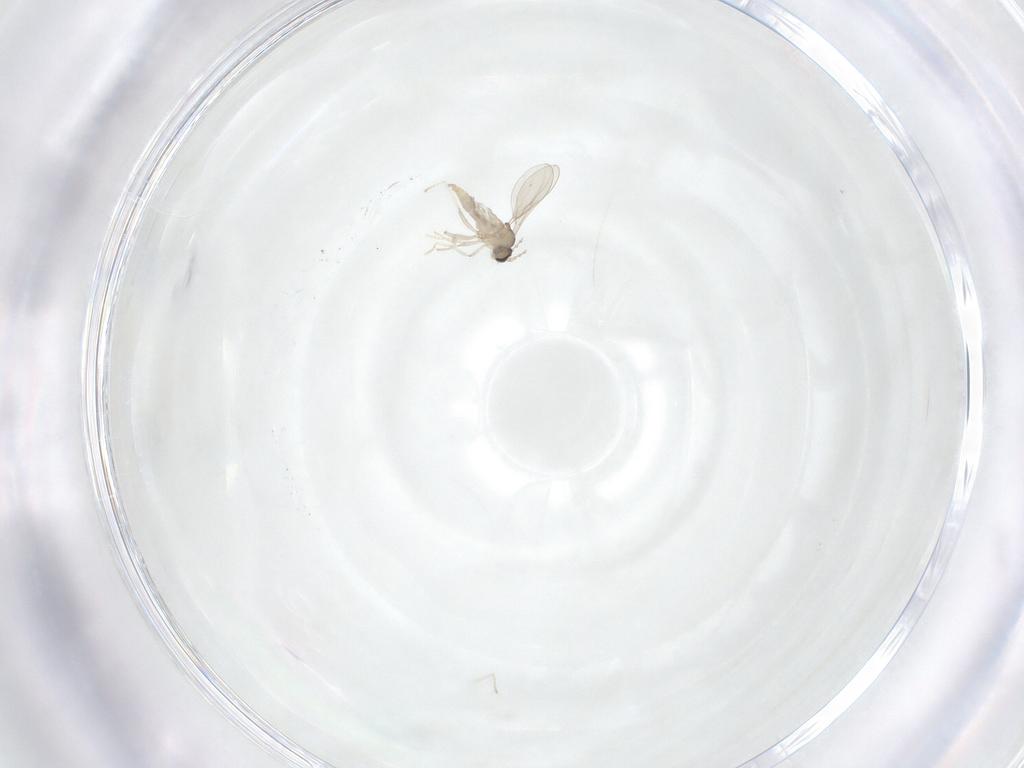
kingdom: Animalia
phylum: Arthropoda
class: Insecta
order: Diptera
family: Cecidomyiidae
